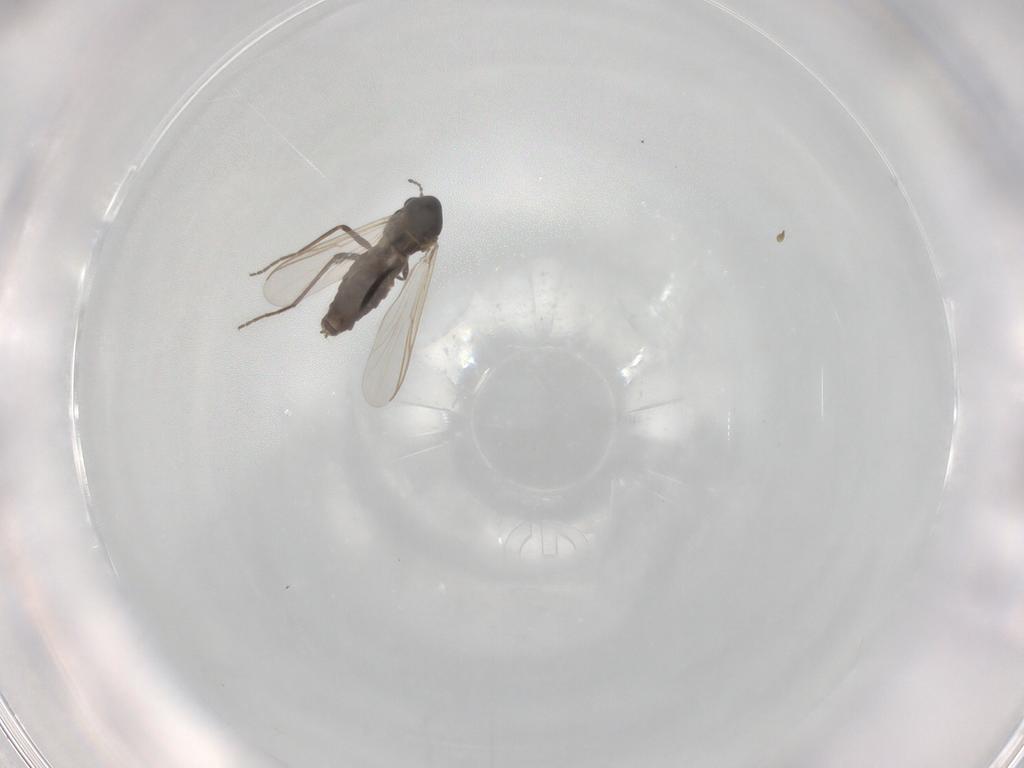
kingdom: Animalia
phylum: Arthropoda
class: Insecta
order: Diptera
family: Chironomidae
